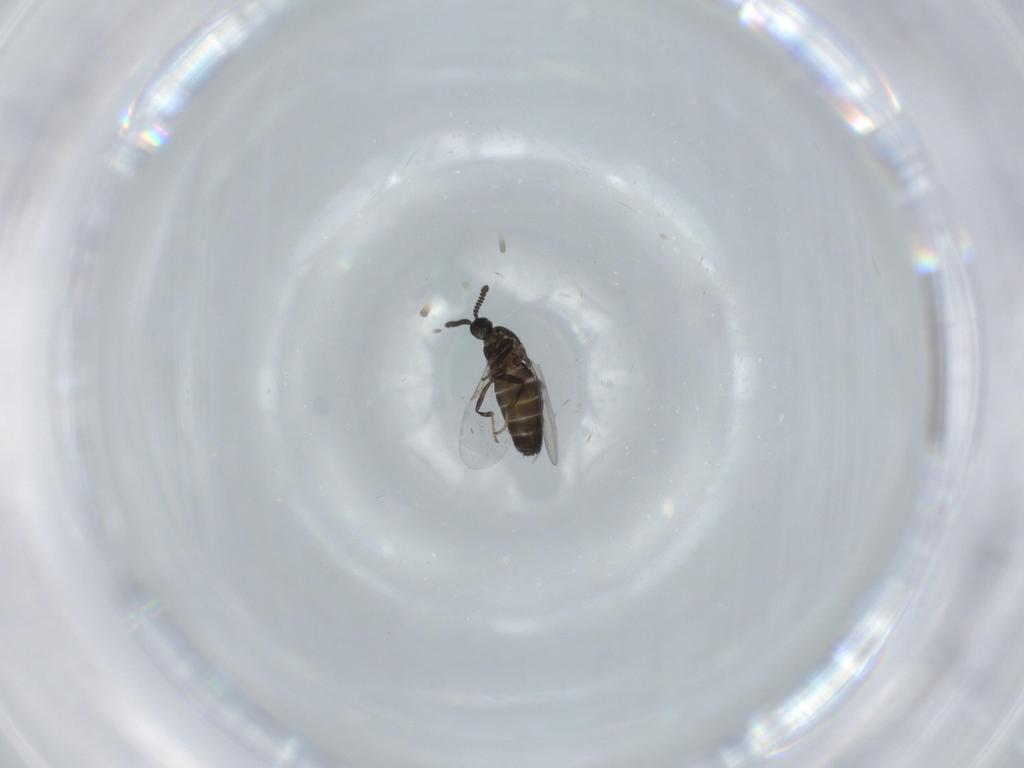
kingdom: Animalia
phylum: Arthropoda
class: Insecta
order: Diptera
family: Scatopsidae
